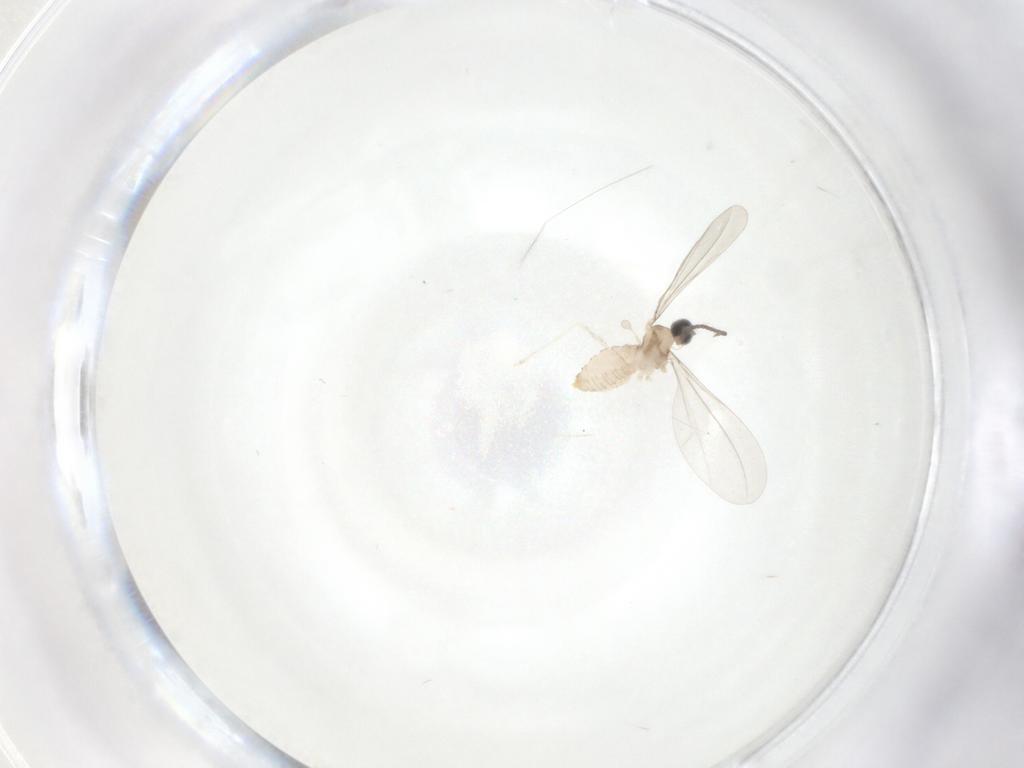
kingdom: Animalia
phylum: Arthropoda
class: Insecta
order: Diptera
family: Cecidomyiidae
